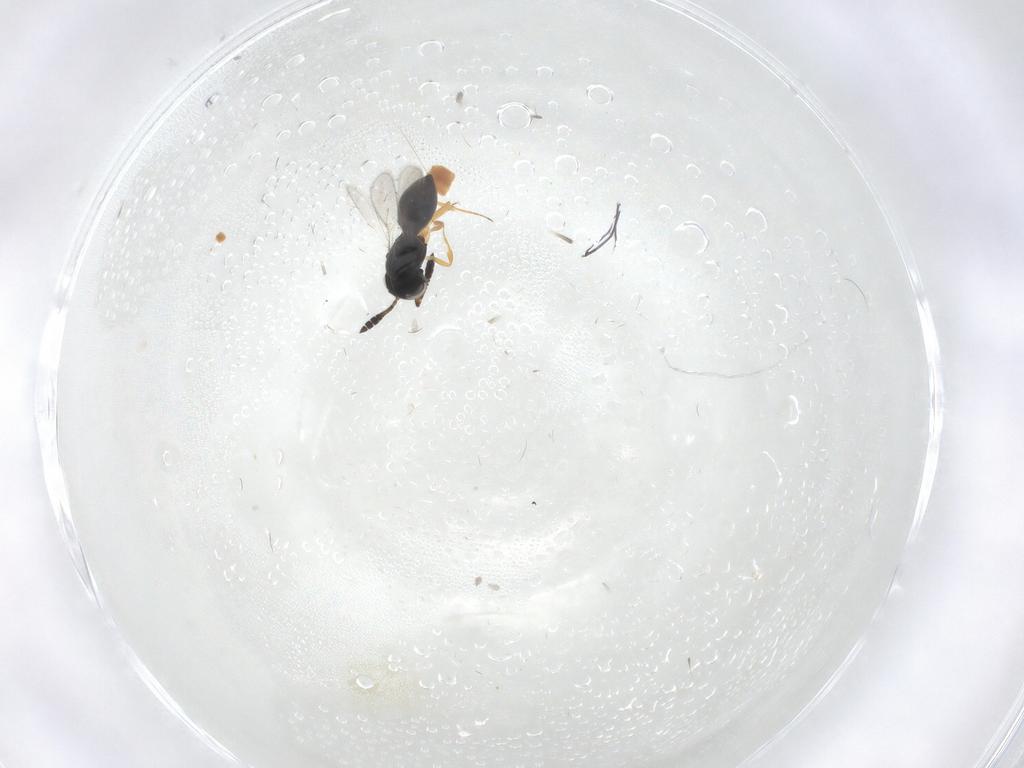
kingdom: Animalia
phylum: Arthropoda
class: Insecta
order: Hymenoptera
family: Scelionidae
